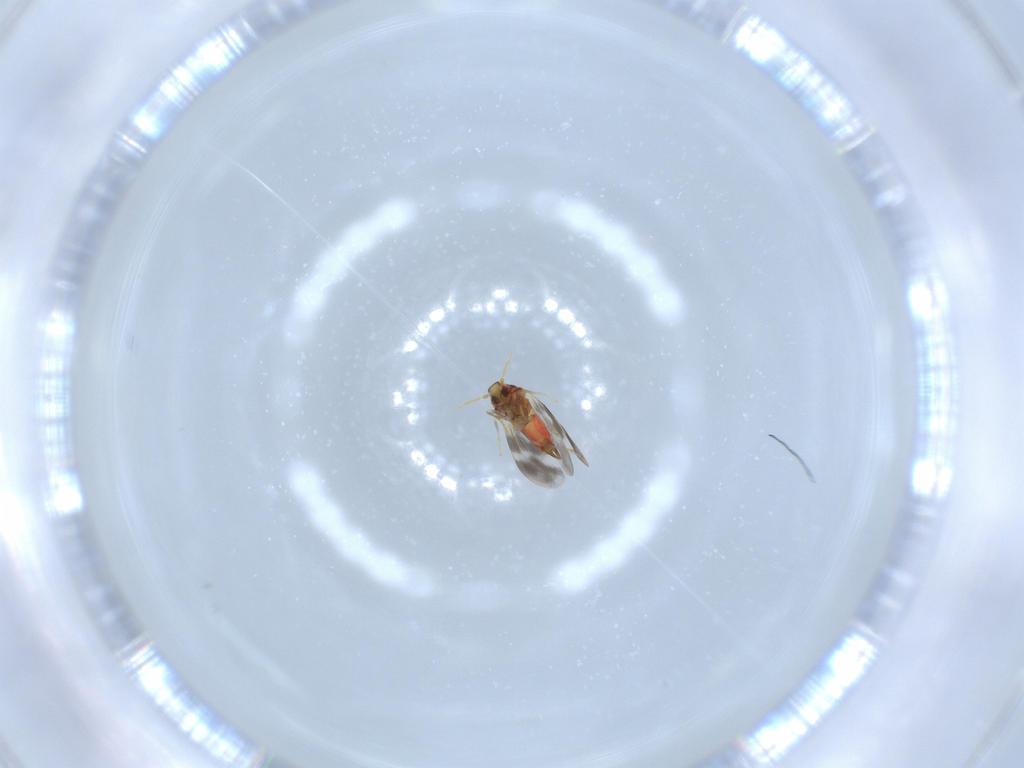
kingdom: Animalia
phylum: Arthropoda
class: Insecta
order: Hemiptera
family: Aleyrodidae
